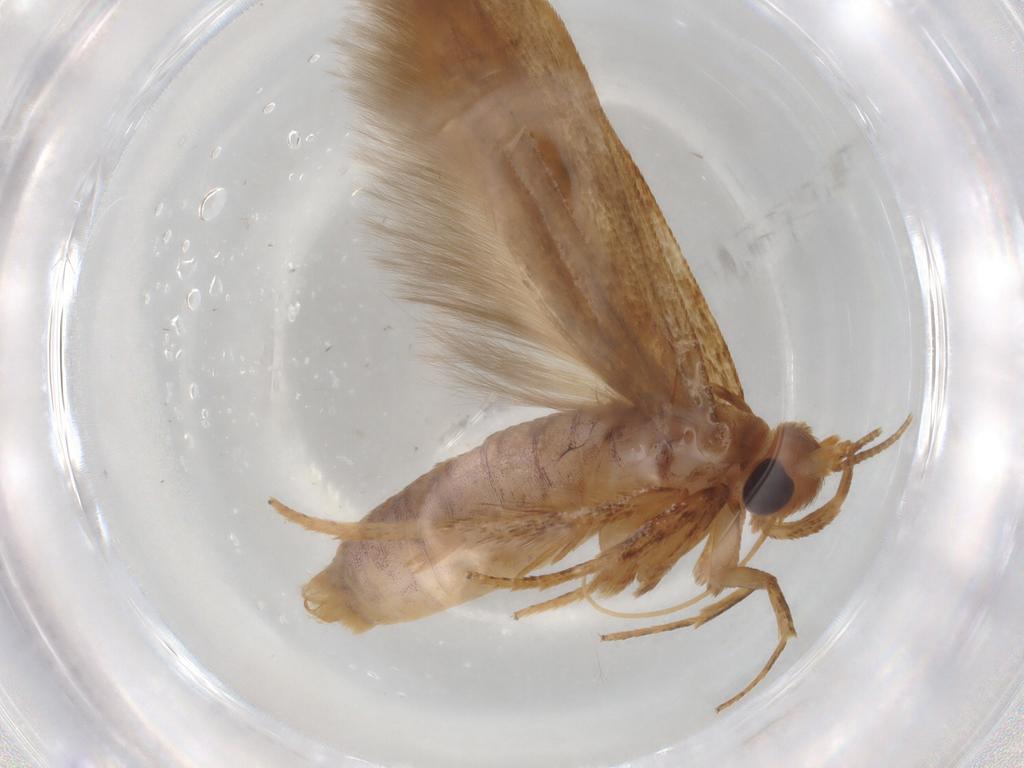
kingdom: Animalia
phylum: Arthropoda
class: Insecta
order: Lepidoptera
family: Blastobasidae
